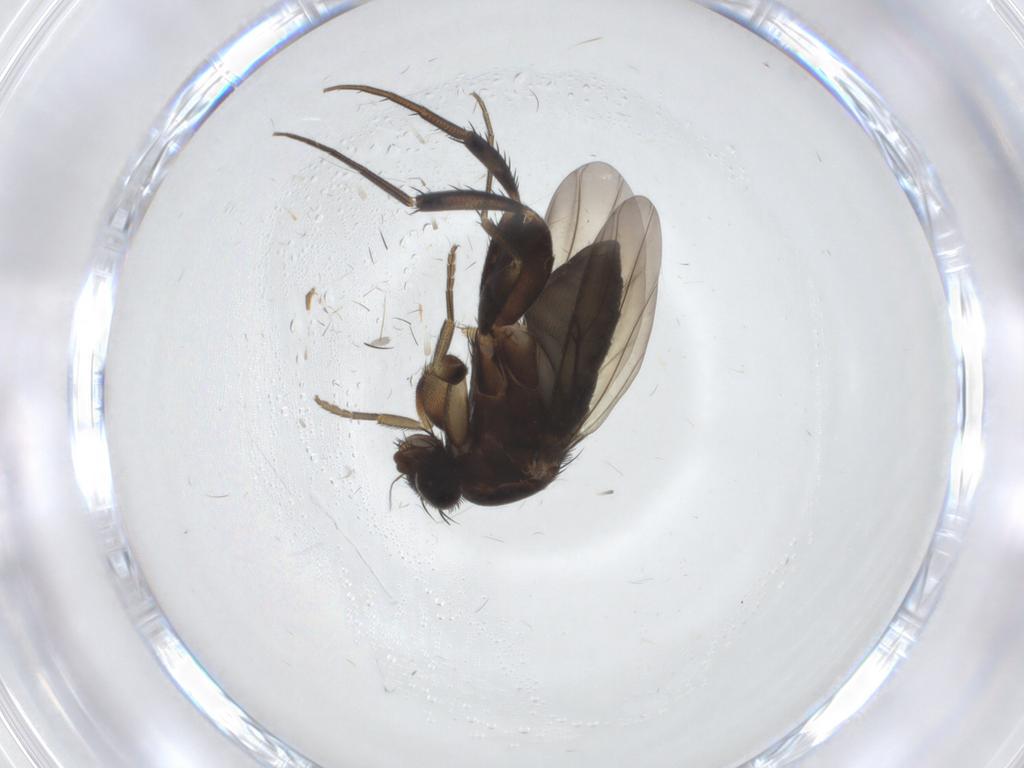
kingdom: Animalia
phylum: Arthropoda
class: Insecta
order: Diptera
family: Phoridae
